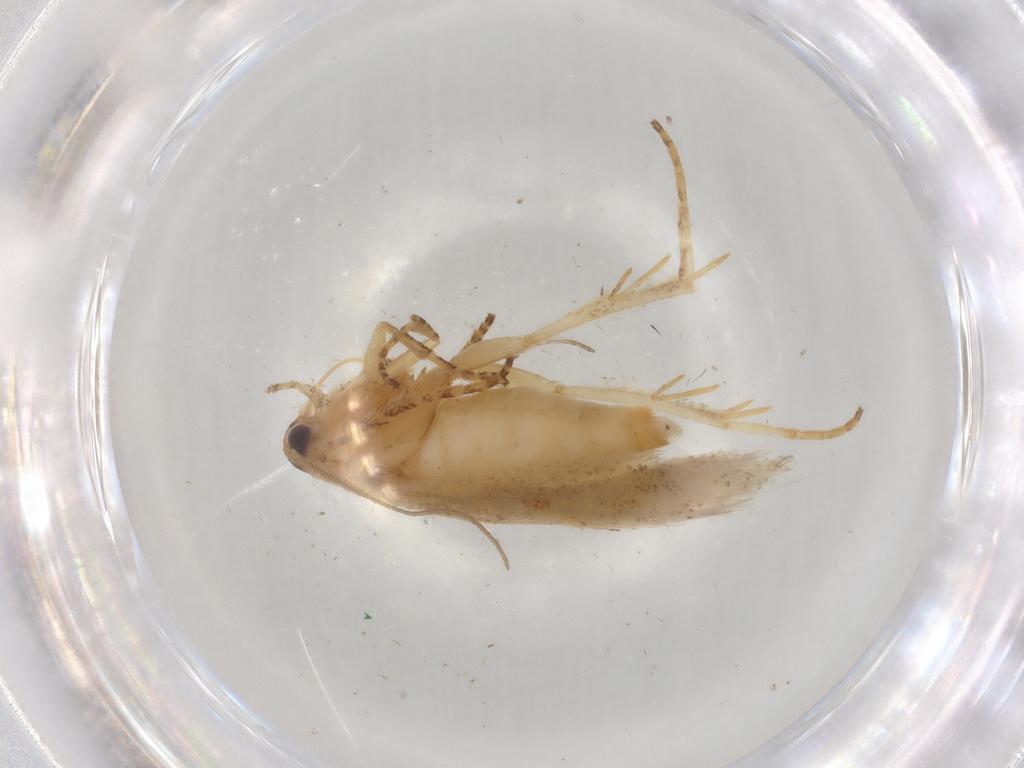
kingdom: Animalia
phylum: Arthropoda
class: Insecta
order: Lepidoptera
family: Gelechiidae
